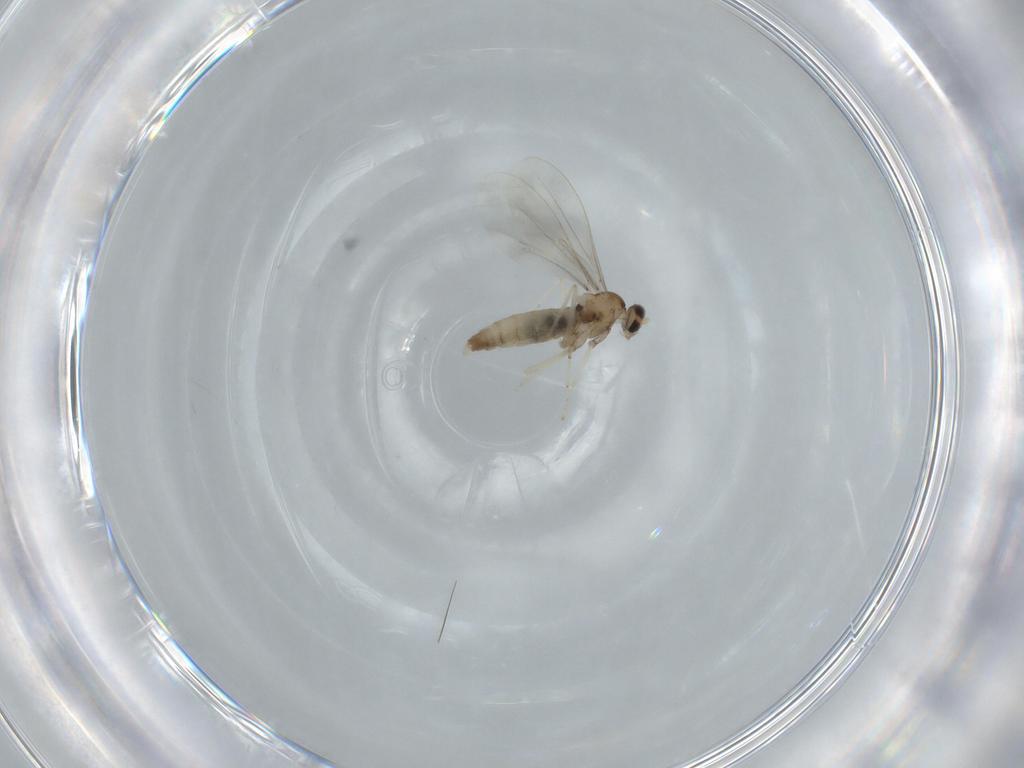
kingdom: Animalia
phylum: Arthropoda
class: Insecta
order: Diptera
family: Cecidomyiidae
